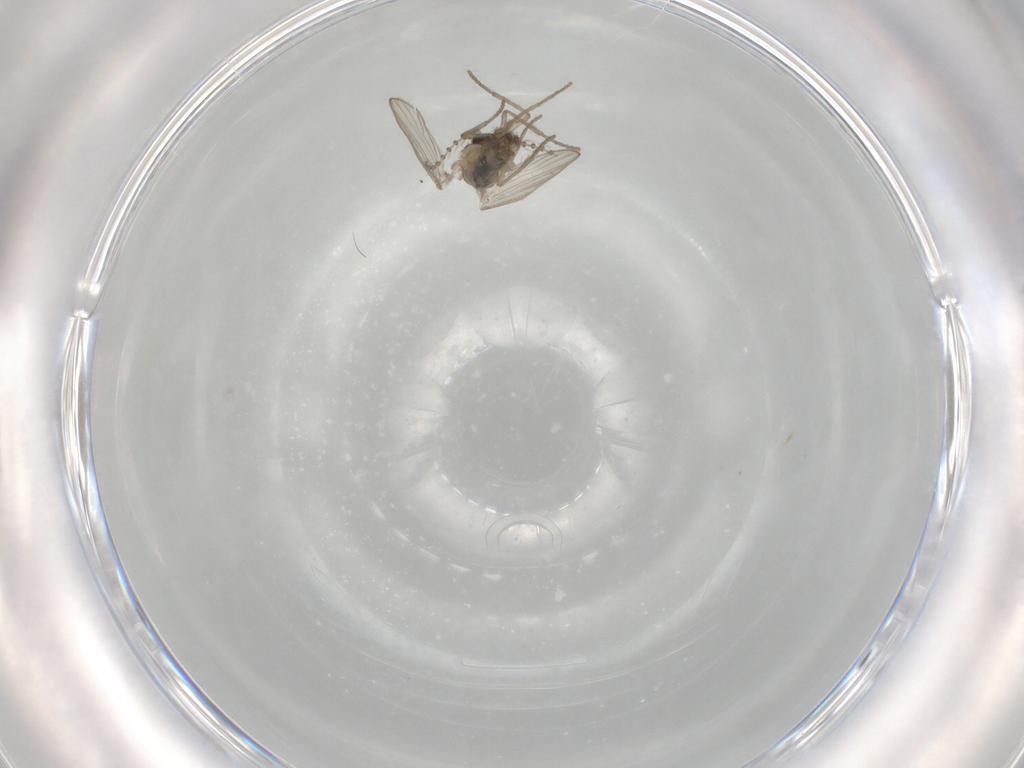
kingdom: Animalia
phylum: Arthropoda
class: Insecta
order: Diptera
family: Psychodidae
